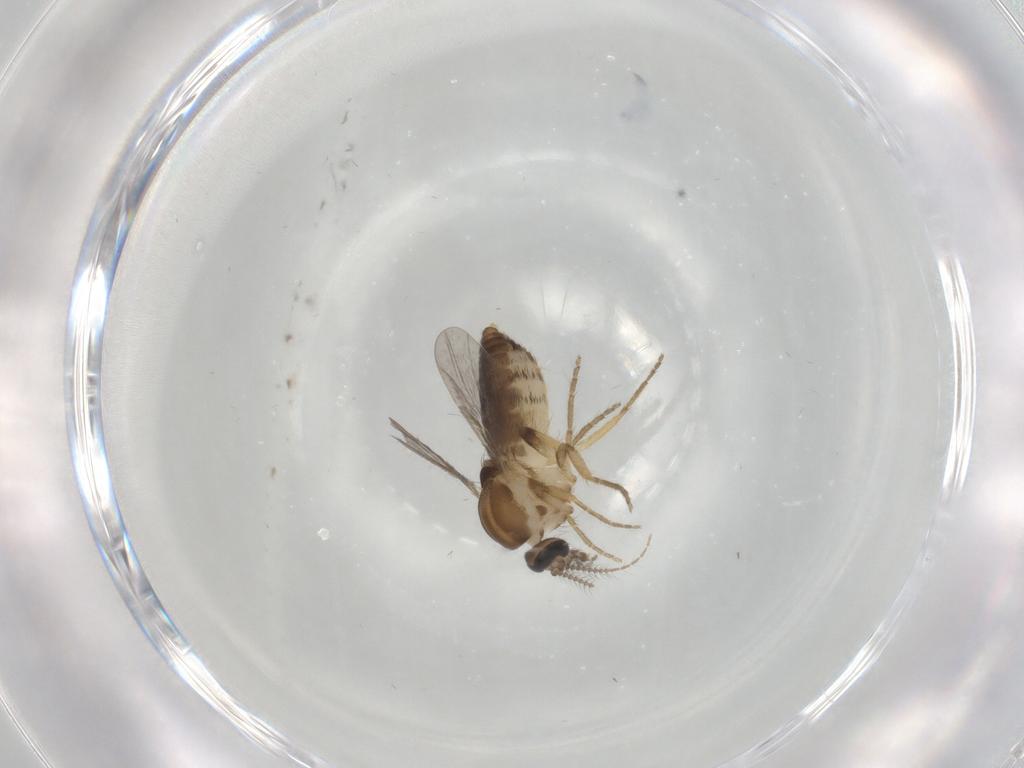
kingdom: Animalia
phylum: Arthropoda
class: Insecta
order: Diptera
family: Ceratopogonidae
